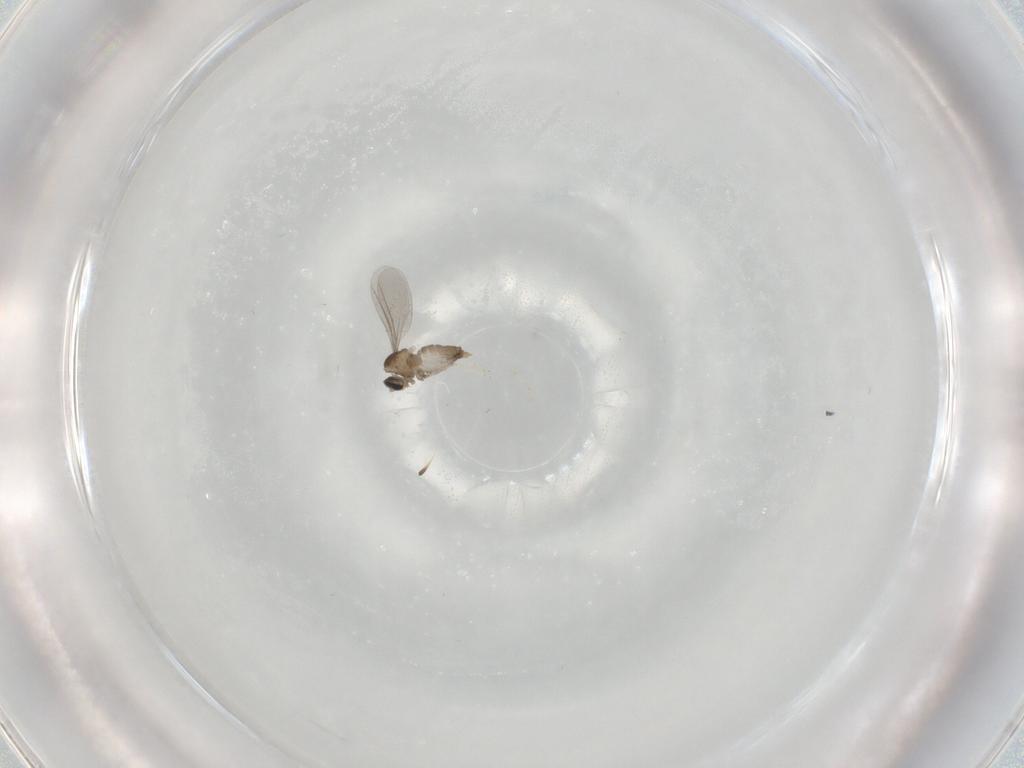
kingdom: Animalia
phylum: Arthropoda
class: Insecta
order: Diptera
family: Cecidomyiidae
